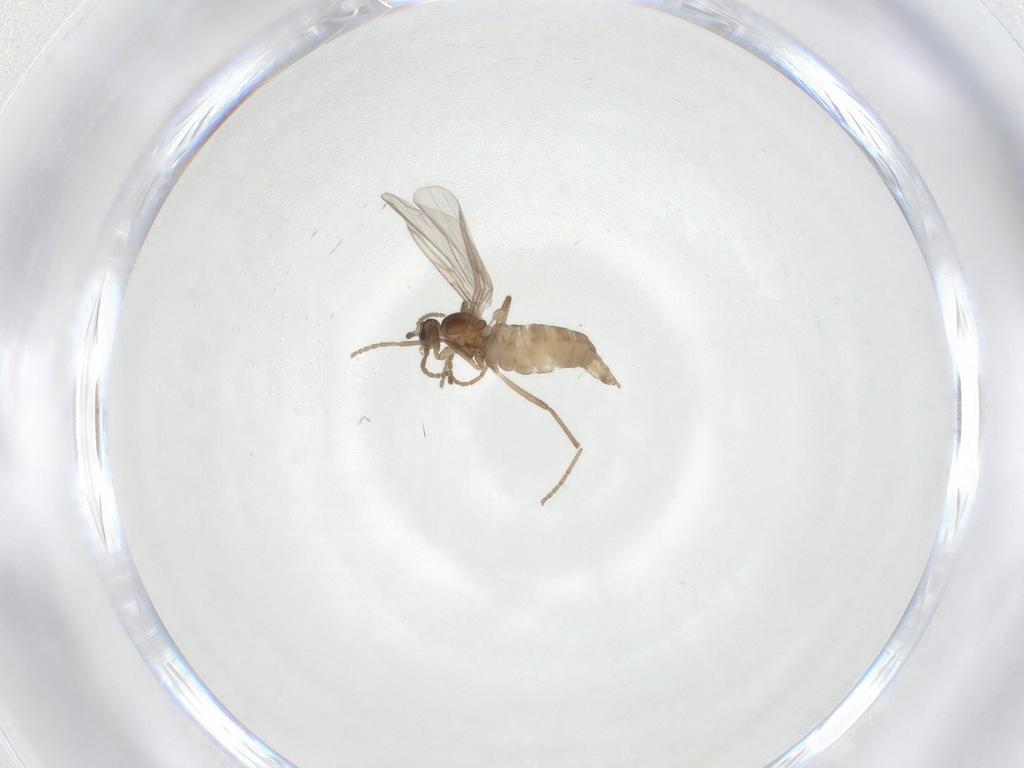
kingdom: Animalia
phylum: Arthropoda
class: Insecta
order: Diptera
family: Empididae
